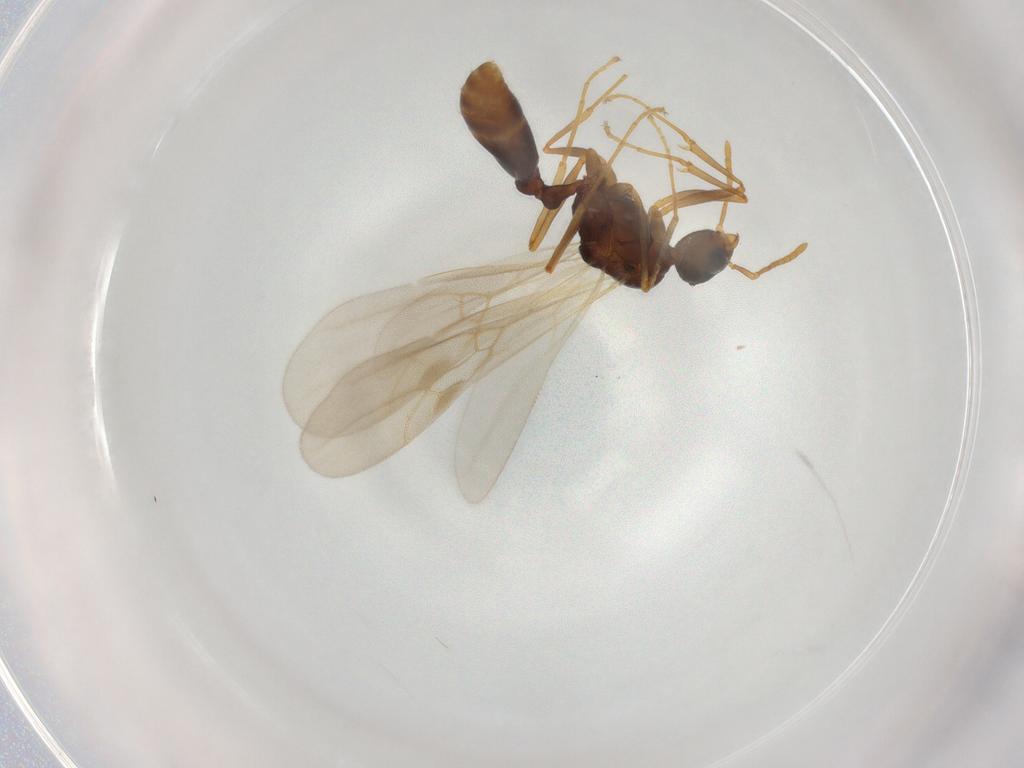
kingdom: Animalia
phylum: Arthropoda
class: Insecta
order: Hymenoptera
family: Formicidae
